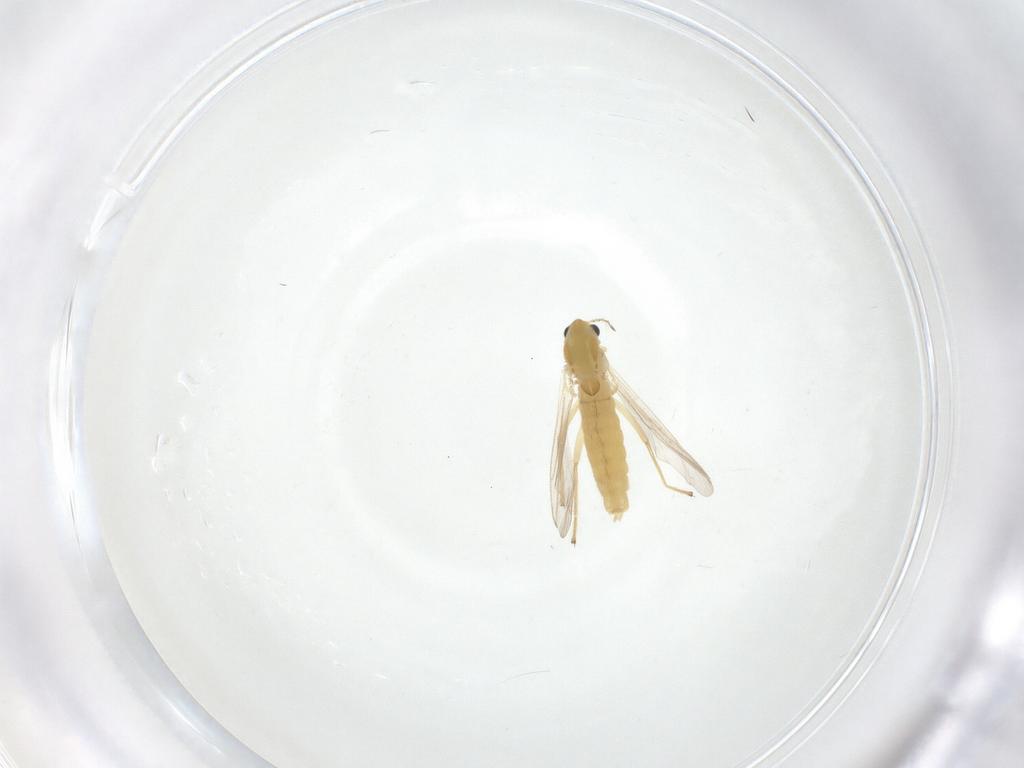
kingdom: Animalia
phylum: Arthropoda
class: Insecta
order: Diptera
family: Chironomidae
